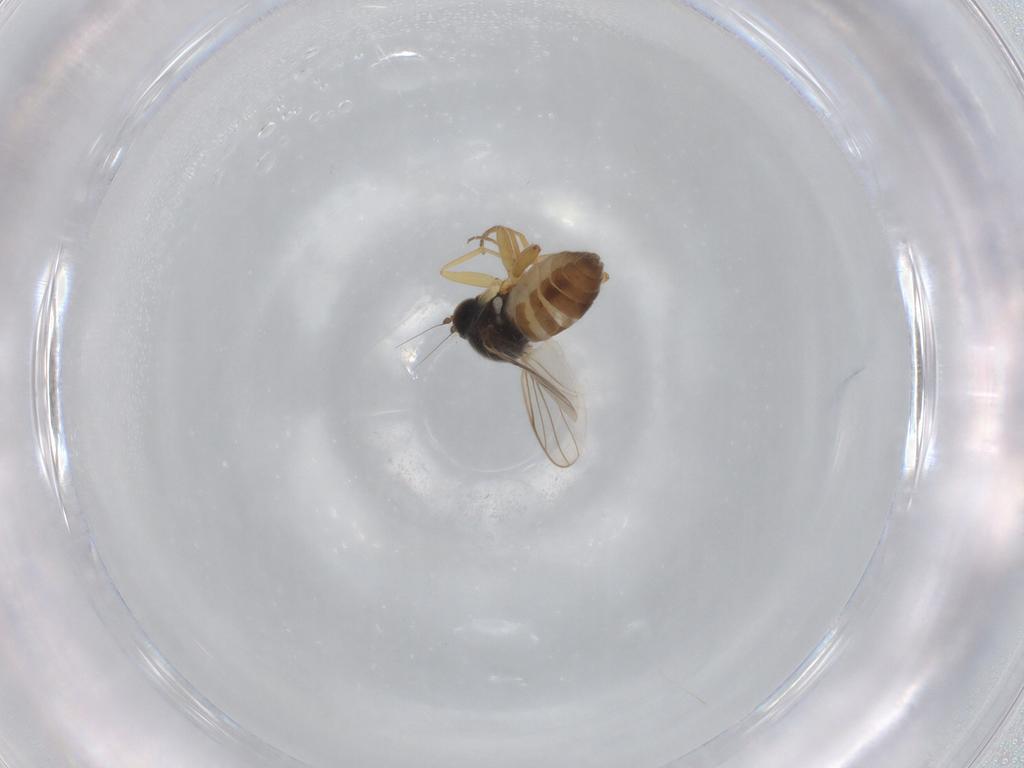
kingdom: Animalia
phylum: Arthropoda
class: Insecta
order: Diptera
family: Hybotidae
